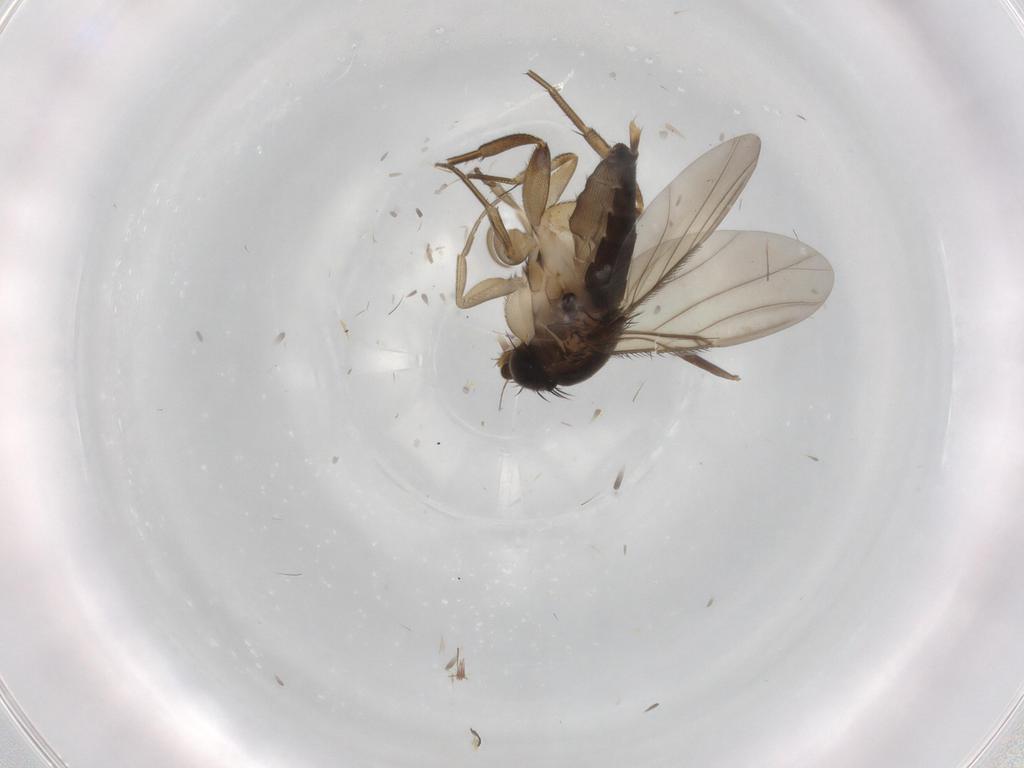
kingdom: Animalia
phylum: Arthropoda
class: Insecta
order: Diptera
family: Phoridae
